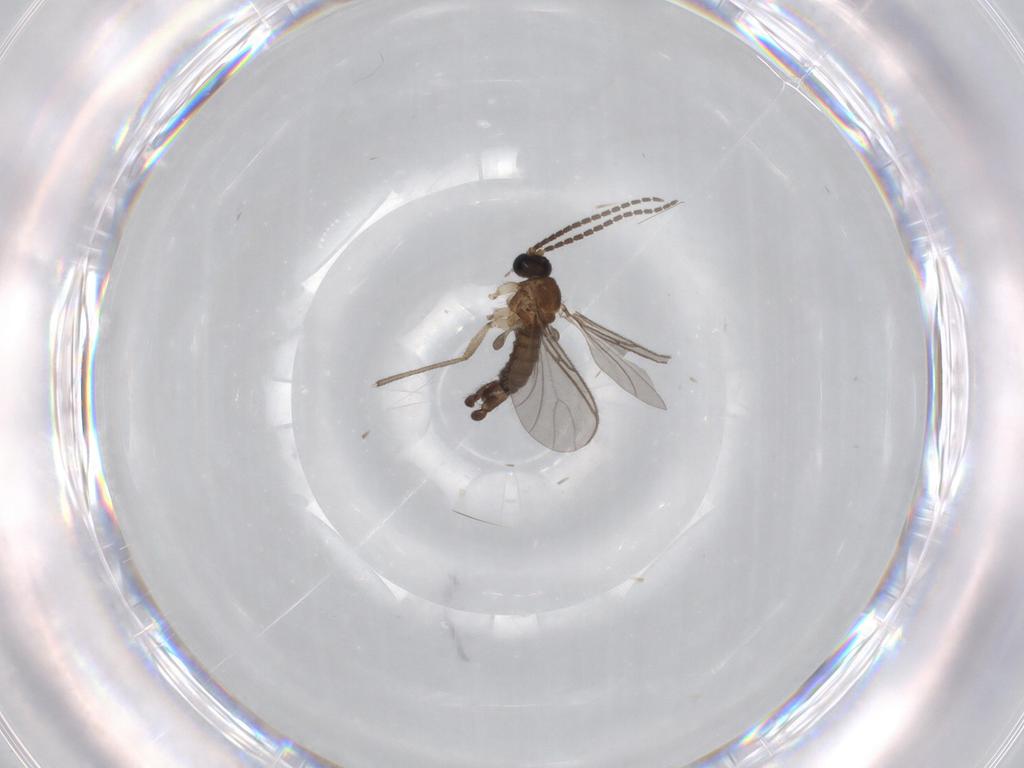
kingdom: Animalia
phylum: Arthropoda
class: Insecta
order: Diptera
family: Sciaridae
